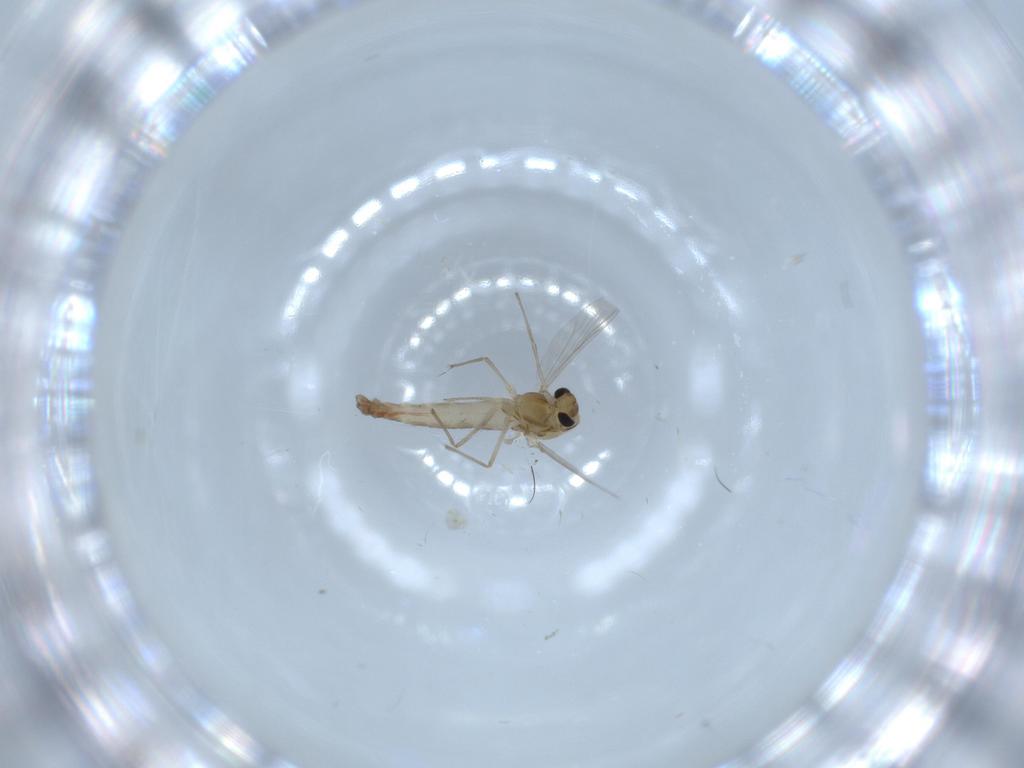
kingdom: Animalia
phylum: Arthropoda
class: Insecta
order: Diptera
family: Chironomidae
